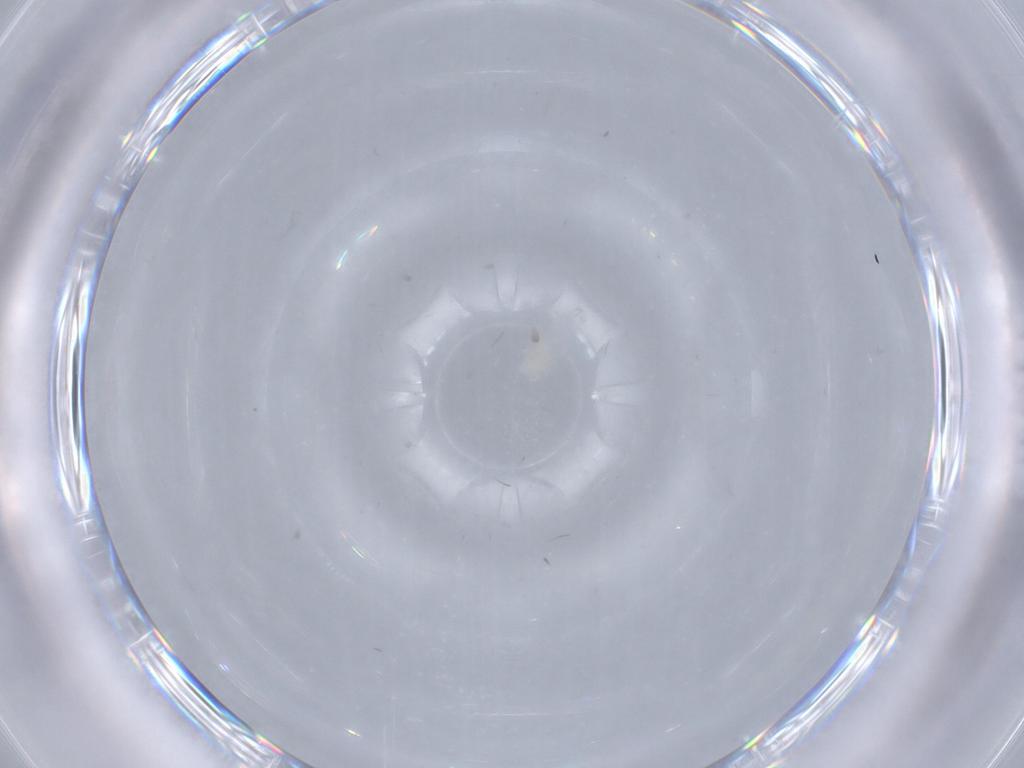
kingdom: Animalia
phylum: Arthropoda
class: Arachnida
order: Trombidiformes
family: Eupodidae
